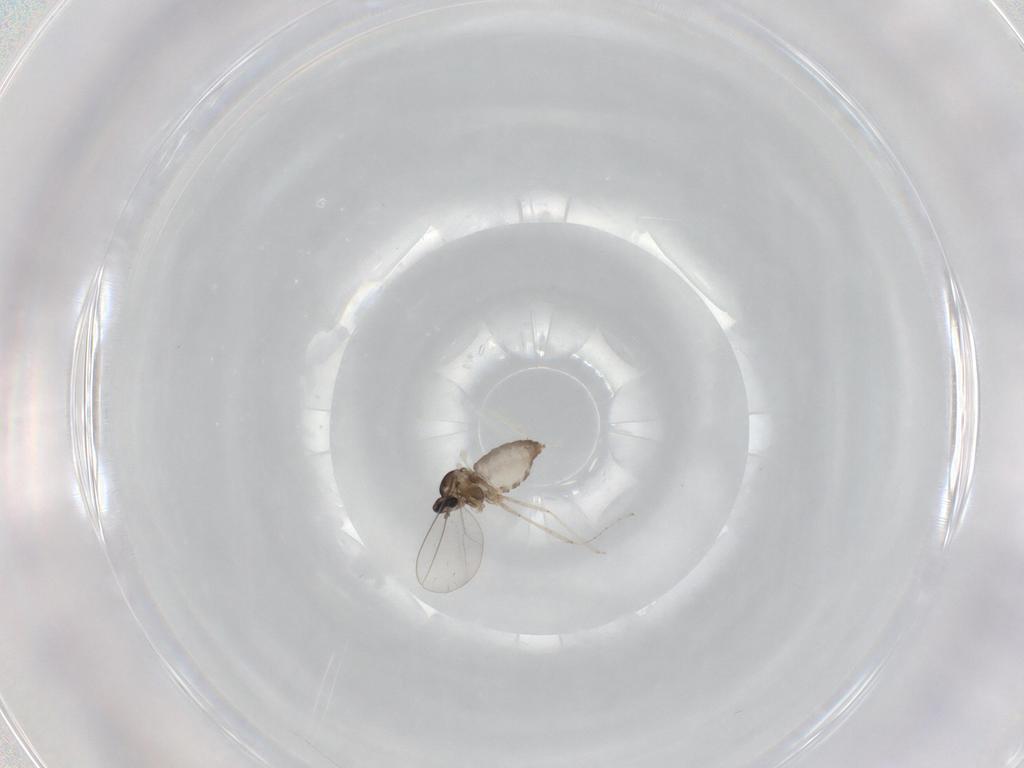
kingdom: Animalia
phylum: Arthropoda
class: Insecta
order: Diptera
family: Cecidomyiidae
